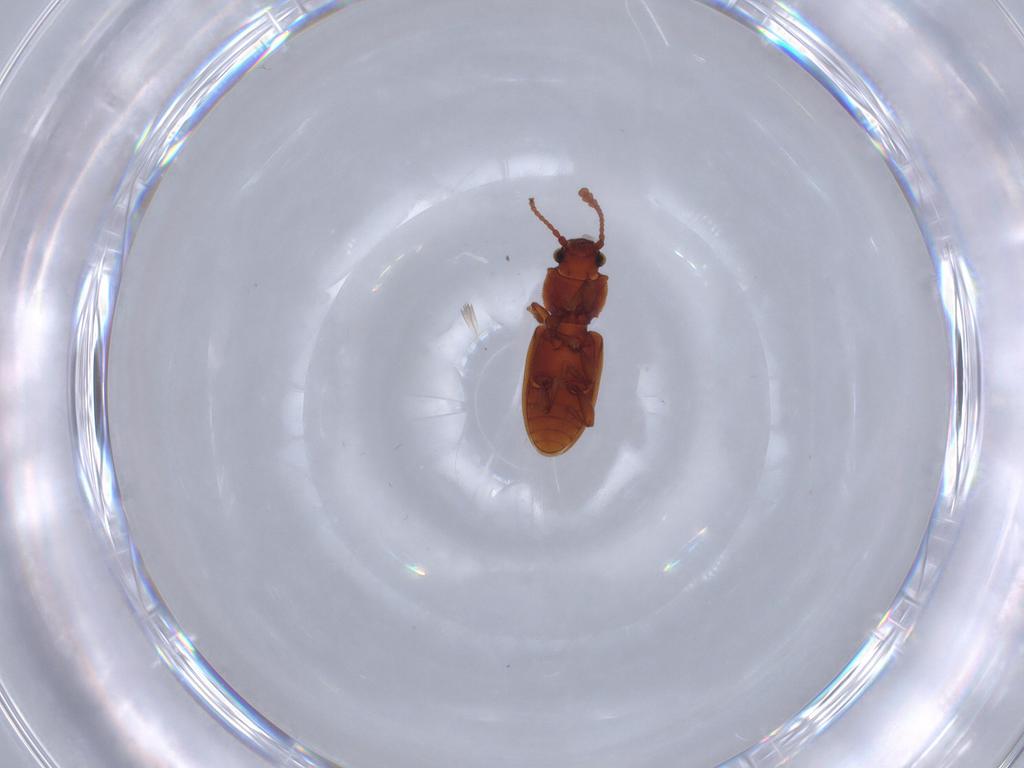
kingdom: Animalia
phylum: Arthropoda
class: Insecta
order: Coleoptera
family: Silvanidae
